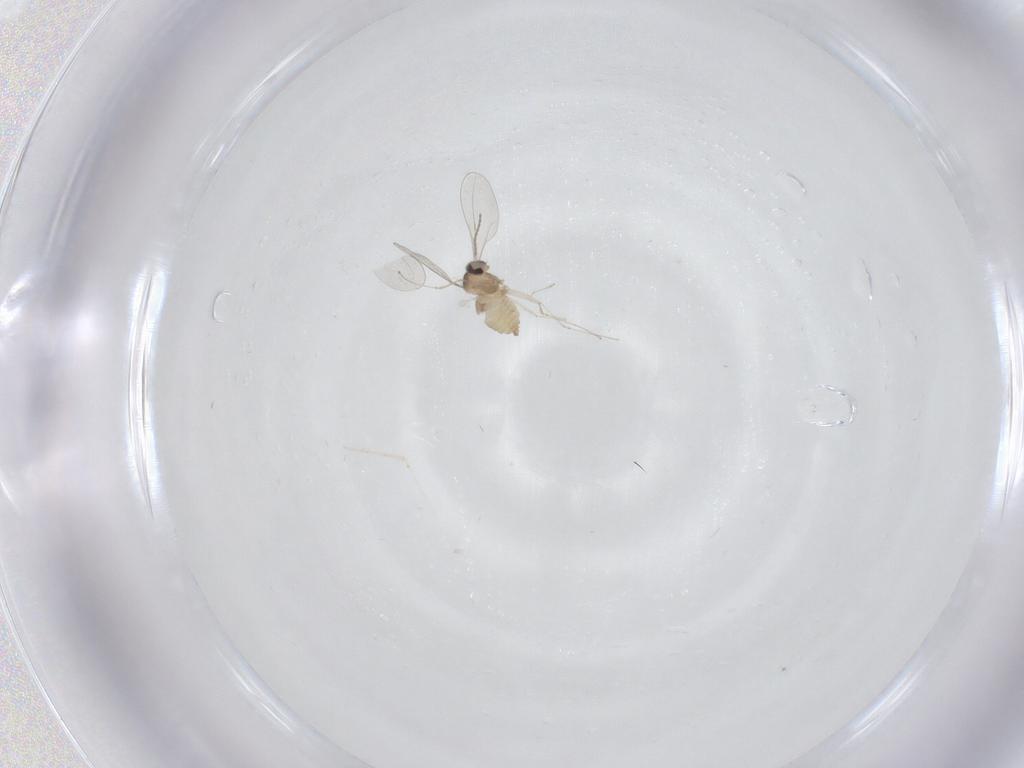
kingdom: Animalia
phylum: Arthropoda
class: Insecta
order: Diptera
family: Cecidomyiidae
